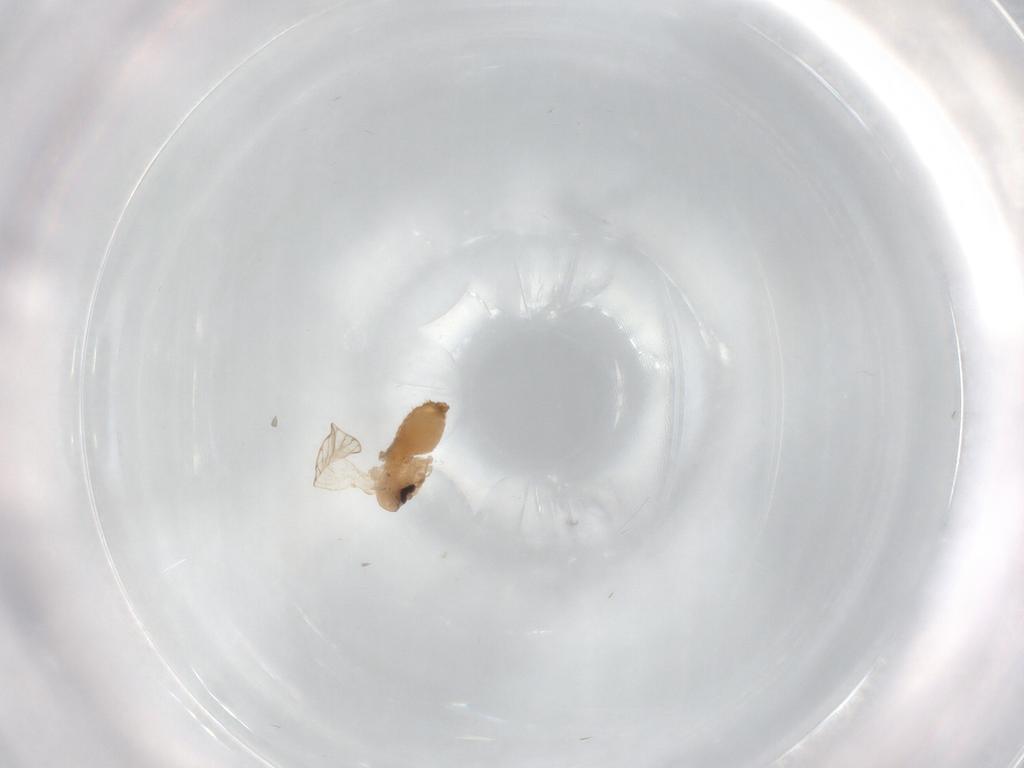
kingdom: Animalia
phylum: Arthropoda
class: Insecta
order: Diptera
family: Psychodidae
